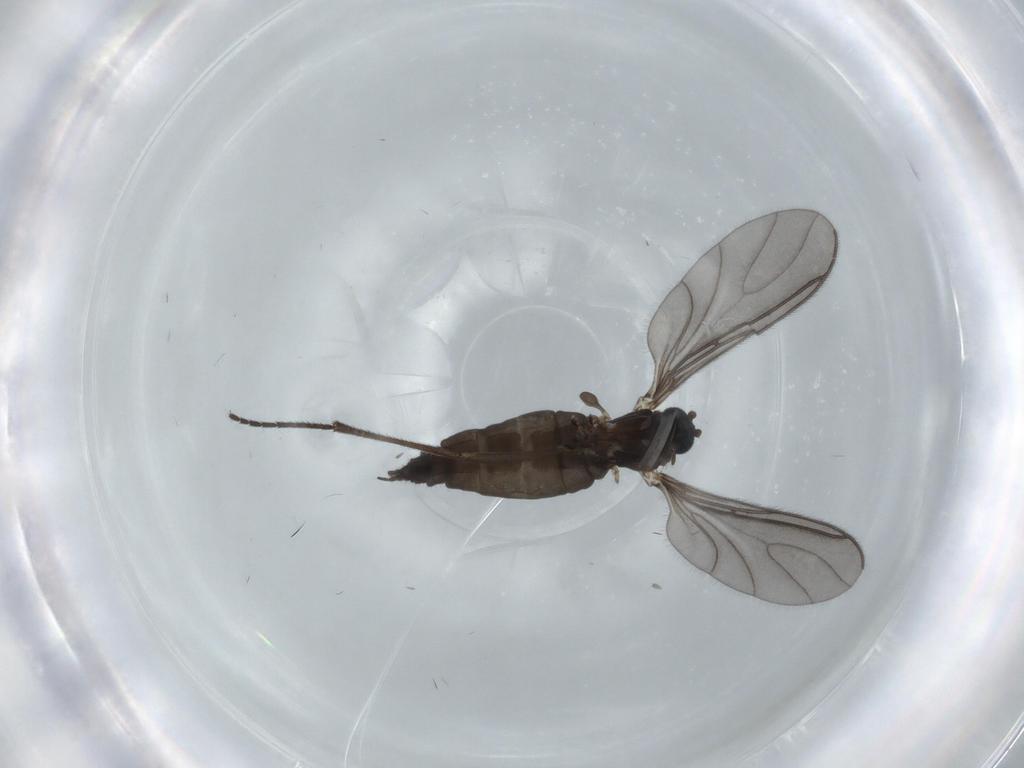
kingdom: Animalia
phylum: Arthropoda
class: Insecta
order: Diptera
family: Sciaridae
